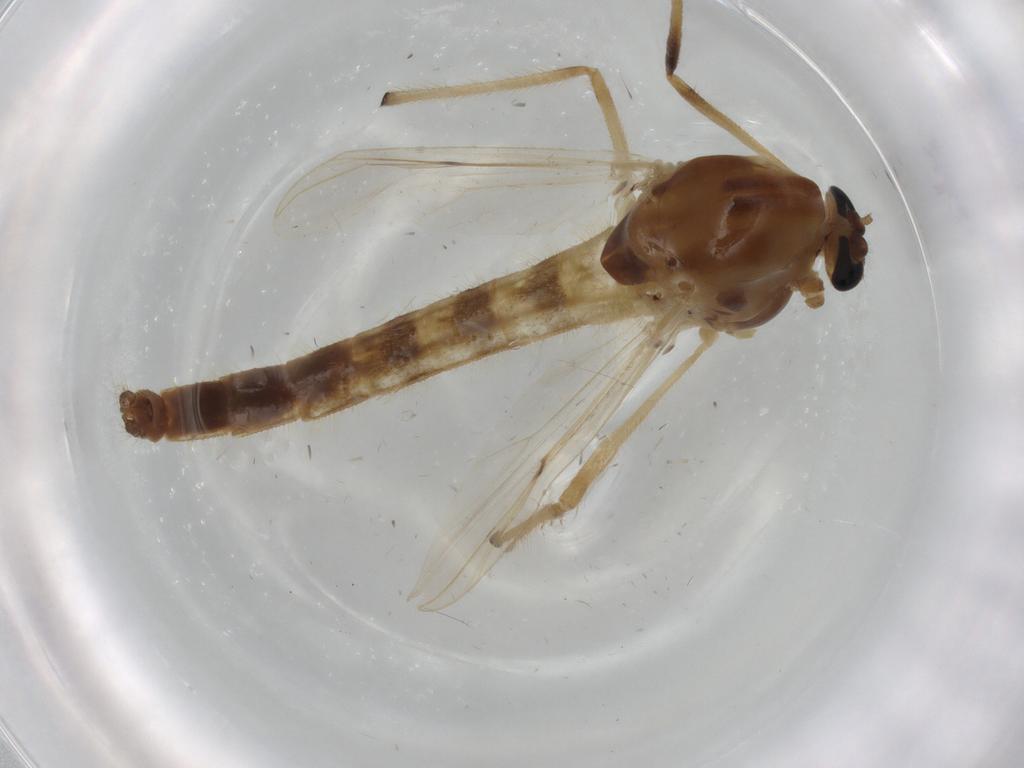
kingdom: Animalia
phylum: Arthropoda
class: Insecta
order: Diptera
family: Chironomidae
